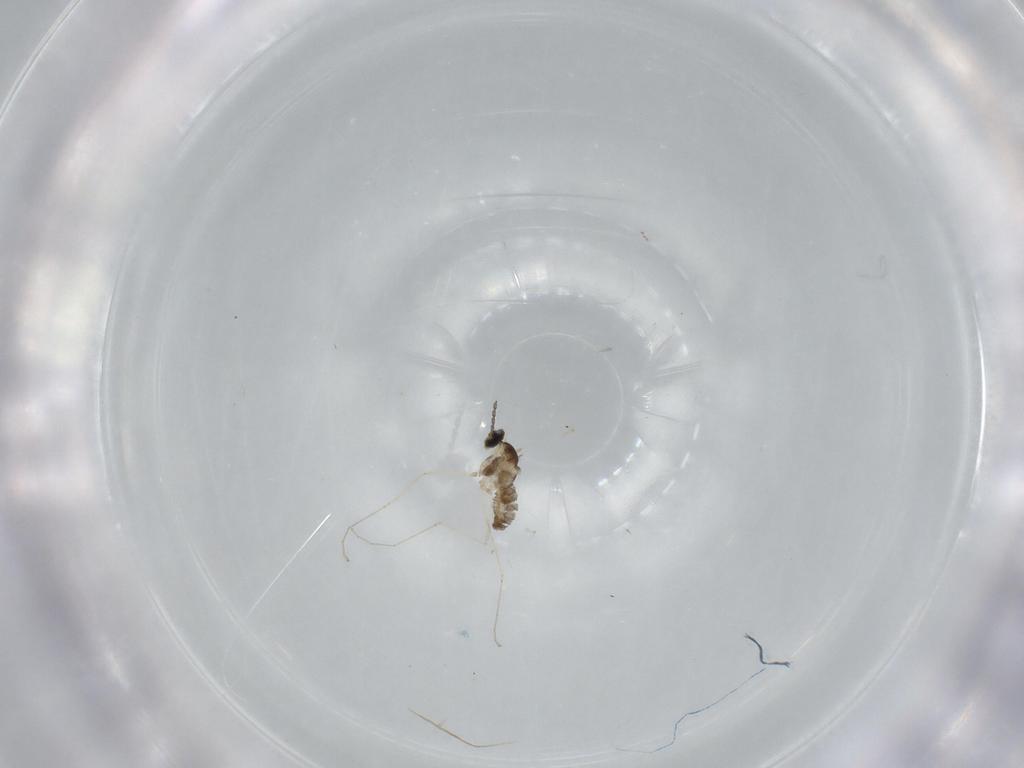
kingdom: Animalia
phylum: Arthropoda
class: Insecta
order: Diptera
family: Cecidomyiidae
